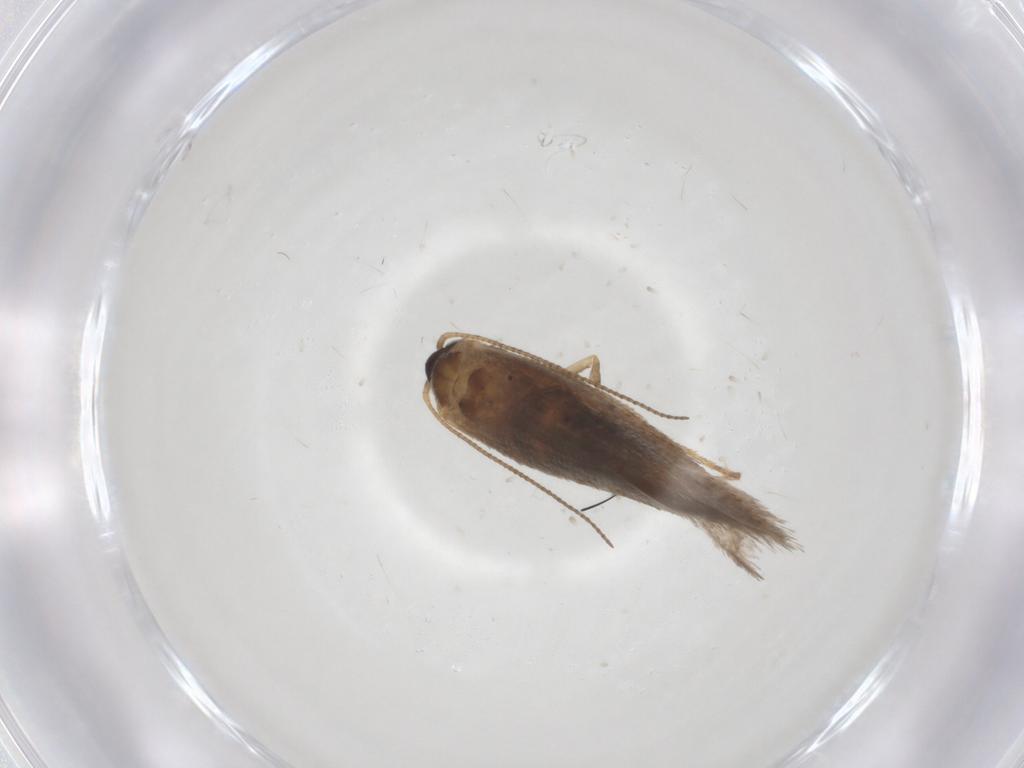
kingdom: Animalia
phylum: Arthropoda
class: Insecta
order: Lepidoptera
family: Nepticulidae
